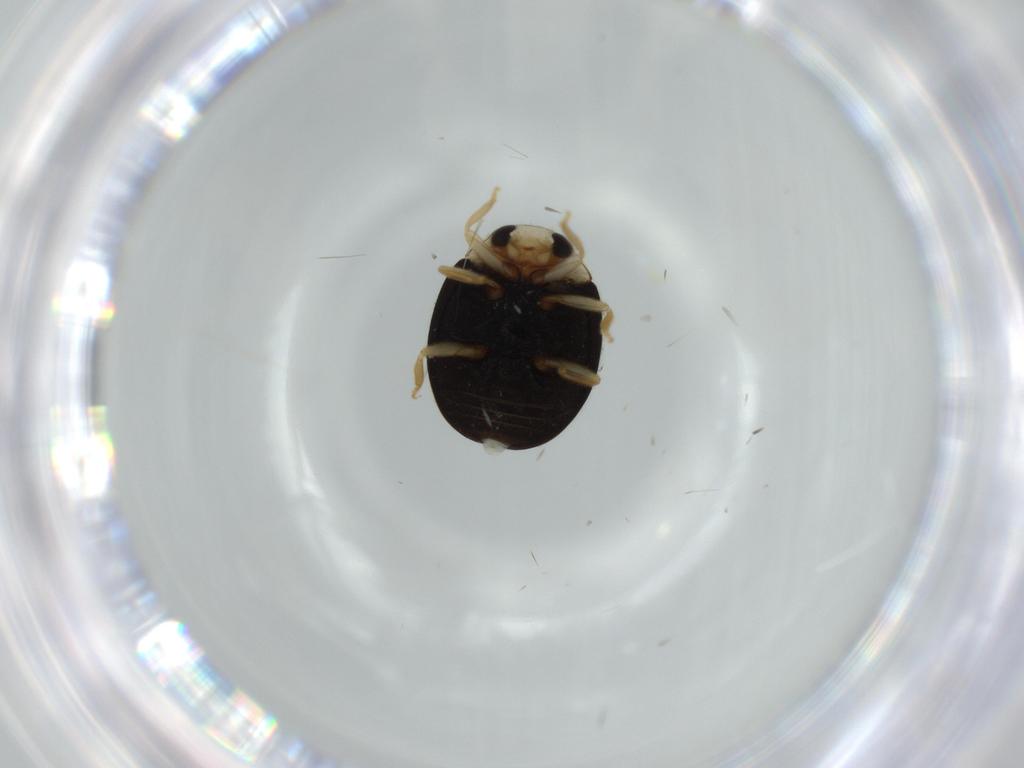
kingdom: Animalia
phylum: Arthropoda
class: Insecta
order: Coleoptera
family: Coccinellidae
